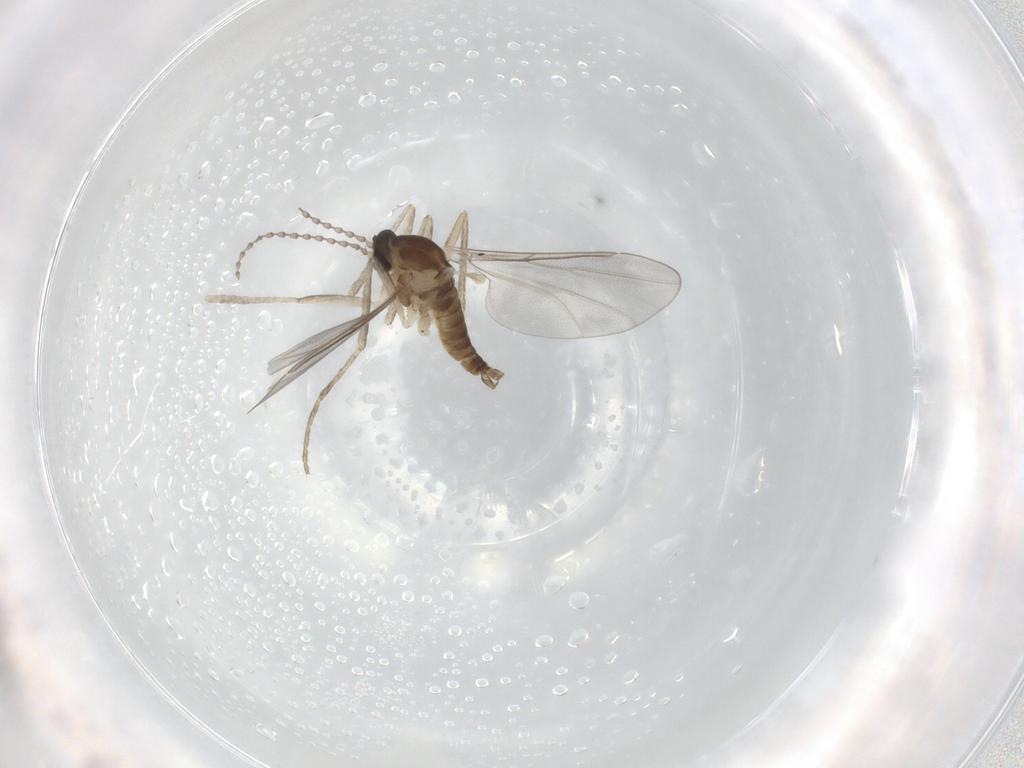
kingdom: Animalia
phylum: Arthropoda
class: Insecta
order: Diptera
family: Cecidomyiidae
